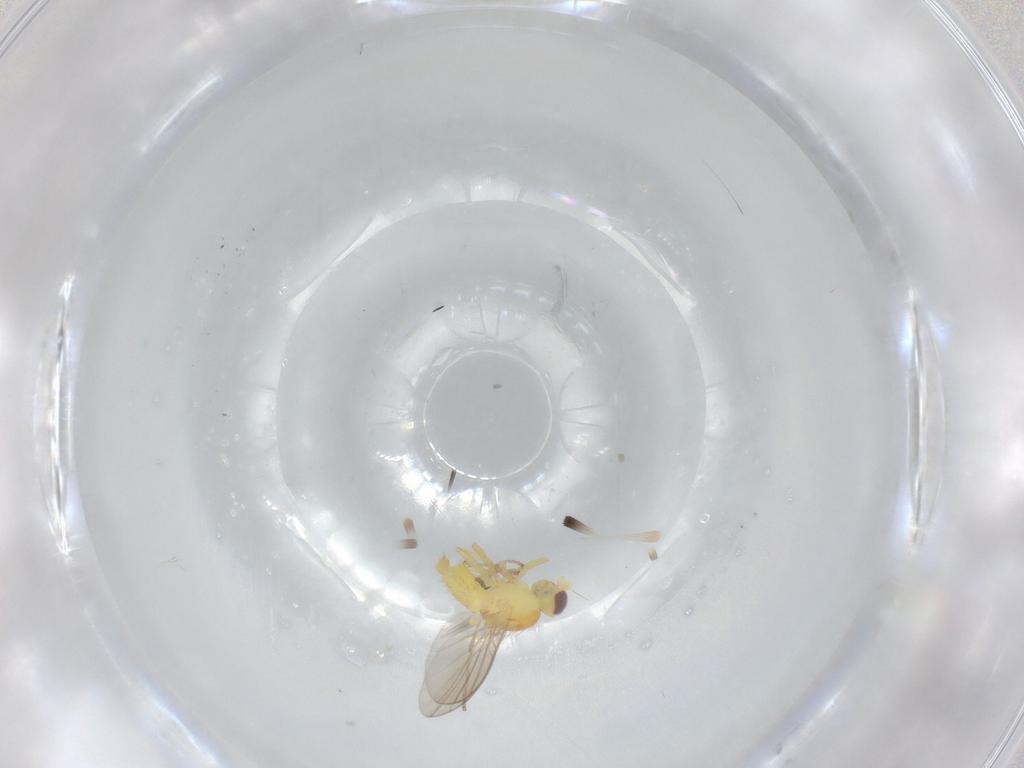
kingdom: Animalia
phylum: Arthropoda
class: Insecta
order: Diptera
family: Agromyzidae
